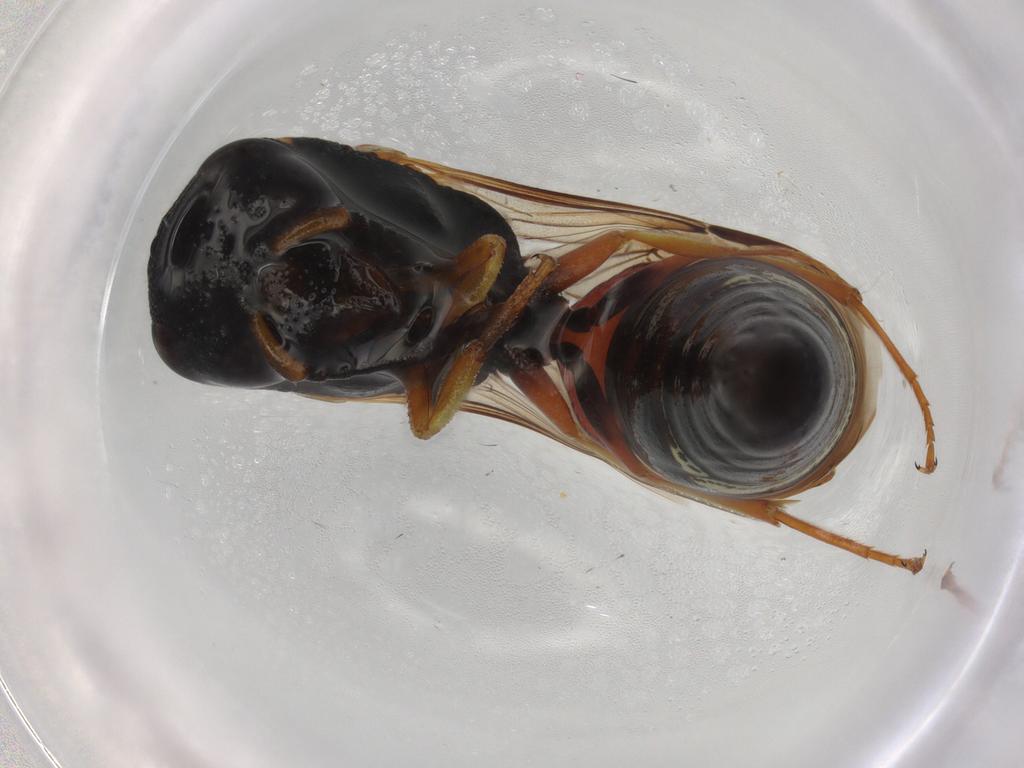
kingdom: Animalia
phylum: Arthropoda
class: Insecta
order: Hymenoptera
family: Vespidae
